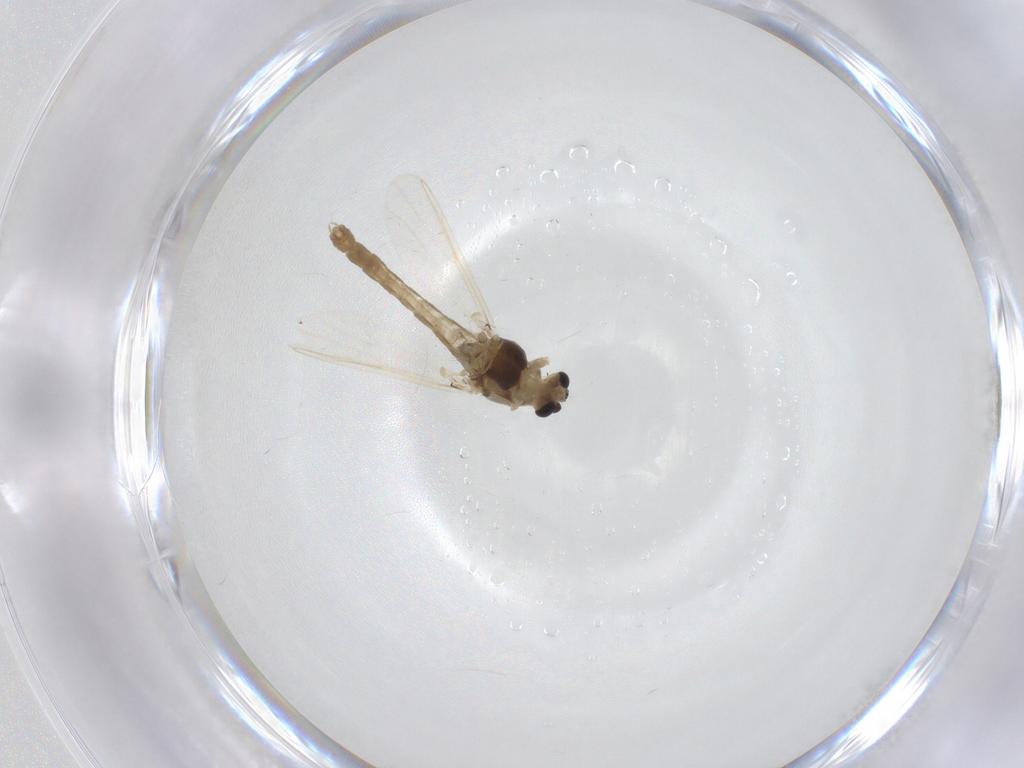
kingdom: Animalia
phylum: Arthropoda
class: Insecta
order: Diptera
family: Chironomidae
